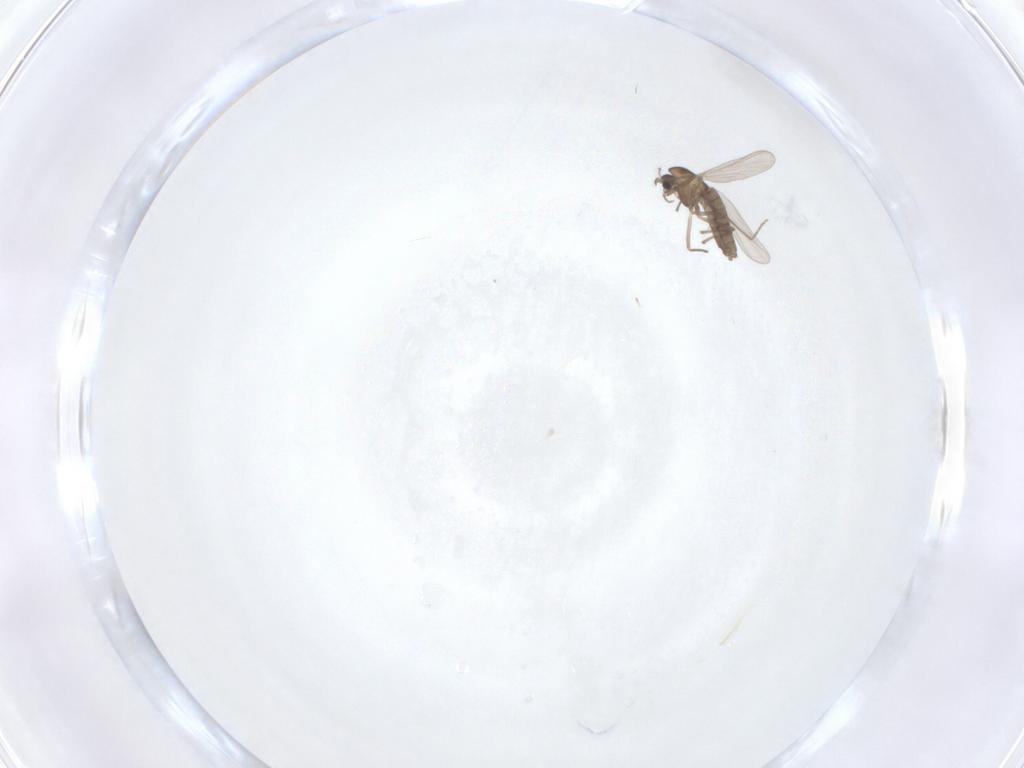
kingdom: Animalia
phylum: Arthropoda
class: Insecta
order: Diptera
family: Chironomidae
